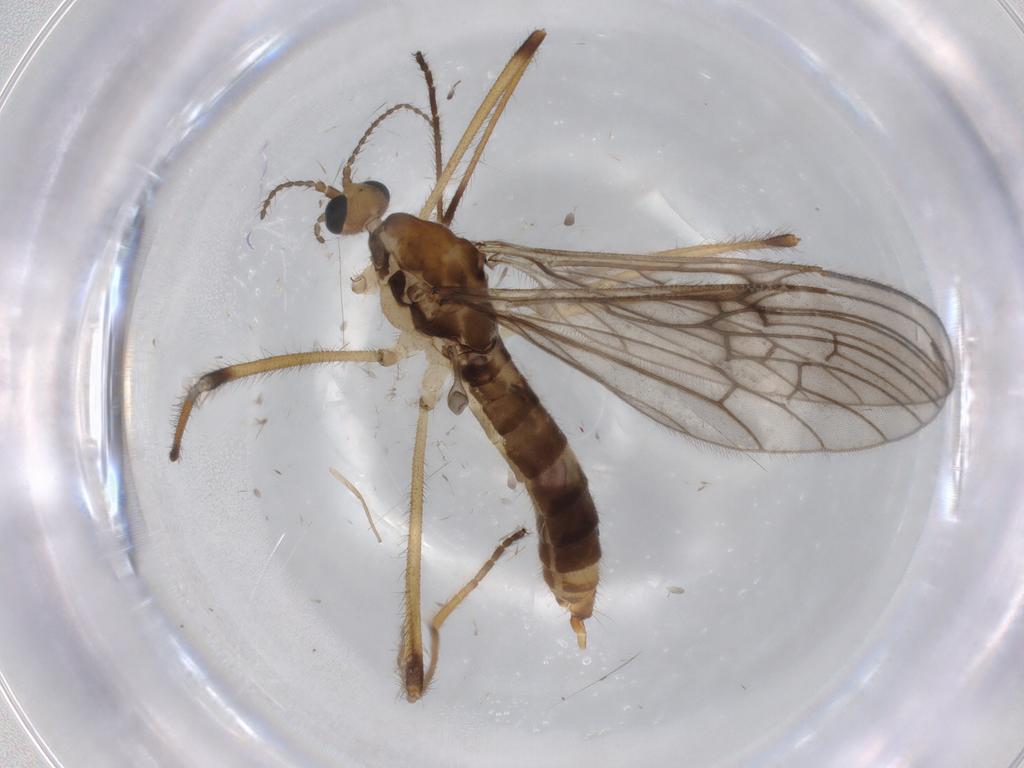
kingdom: Animalia
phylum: Arthropoda
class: Insecta
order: Diptera
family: Limoniidae
